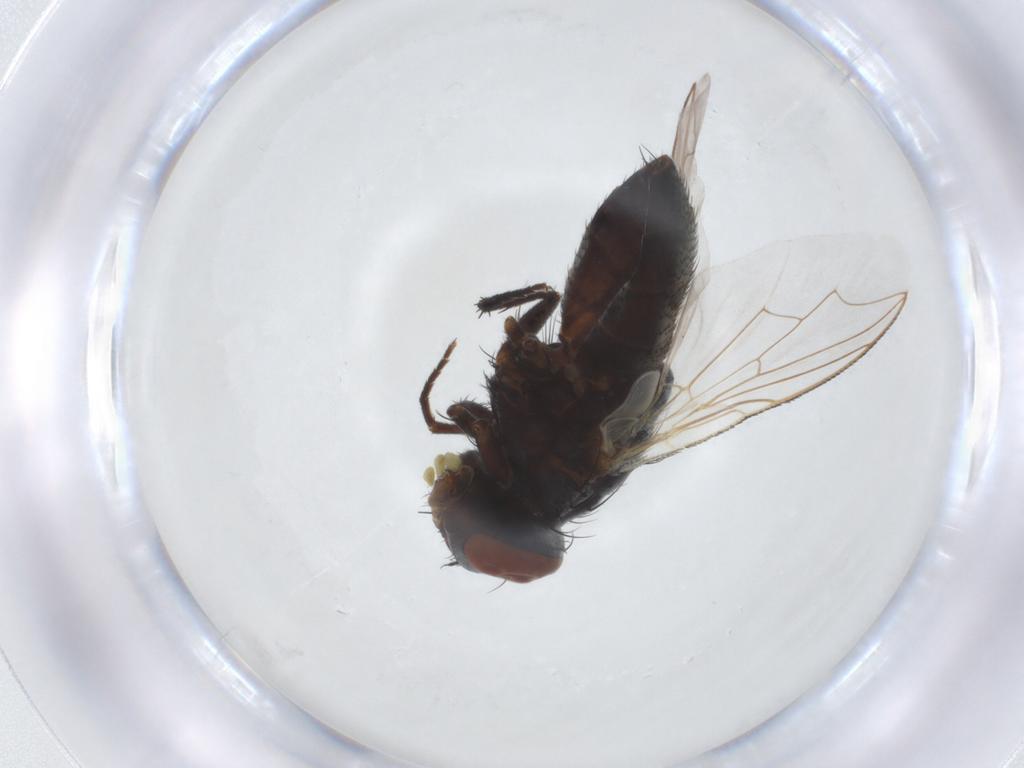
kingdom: Animalia
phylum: Arthropoda
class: Insecta
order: Diptera
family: Sarcophagidae
